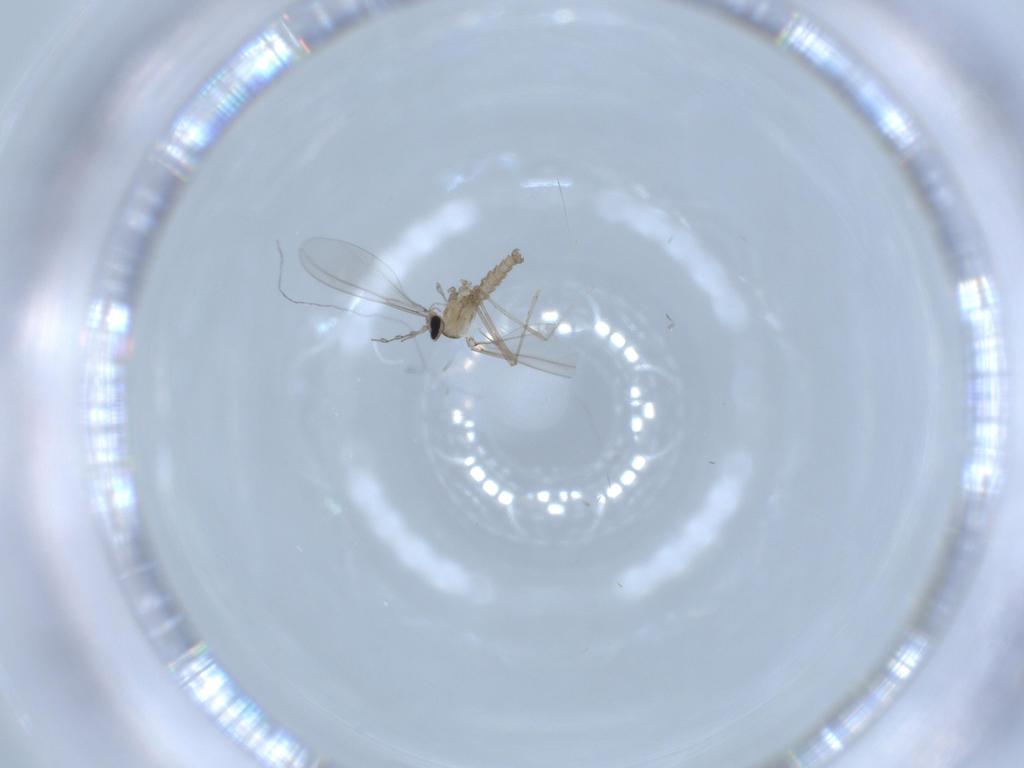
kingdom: Animalia
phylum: Arthropoda
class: Insecta
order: Diptera
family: Cecidomyiidae
